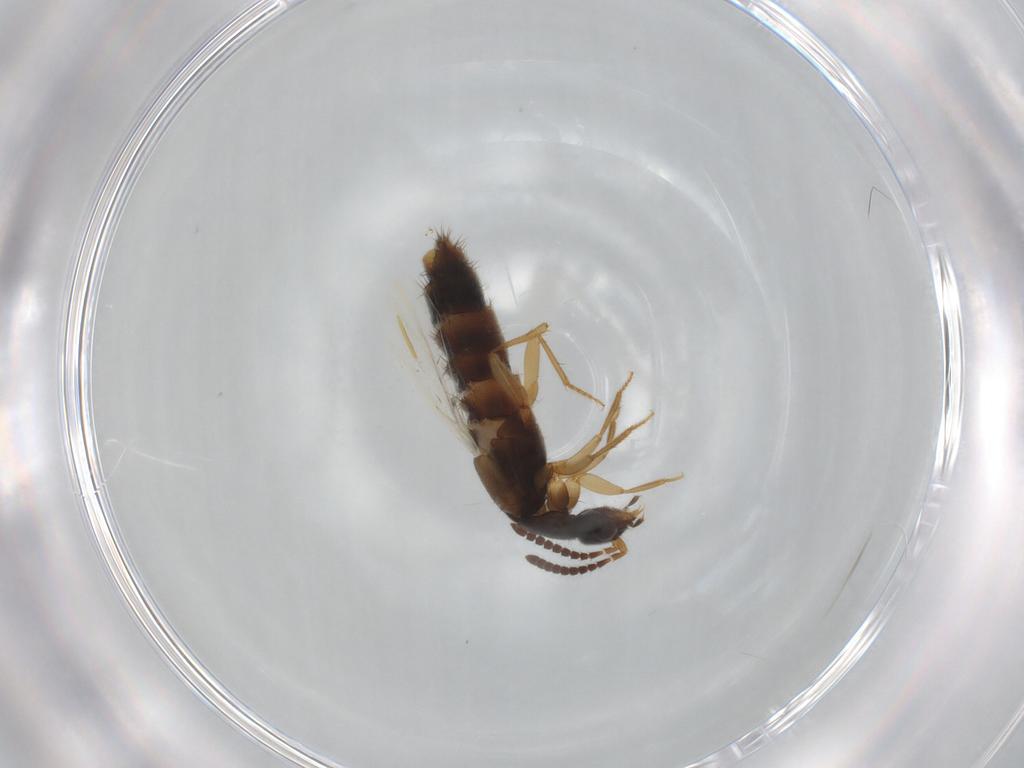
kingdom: Animalia
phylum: Arthropoda
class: Insecta
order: Coleoptera
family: Staphylinidae
